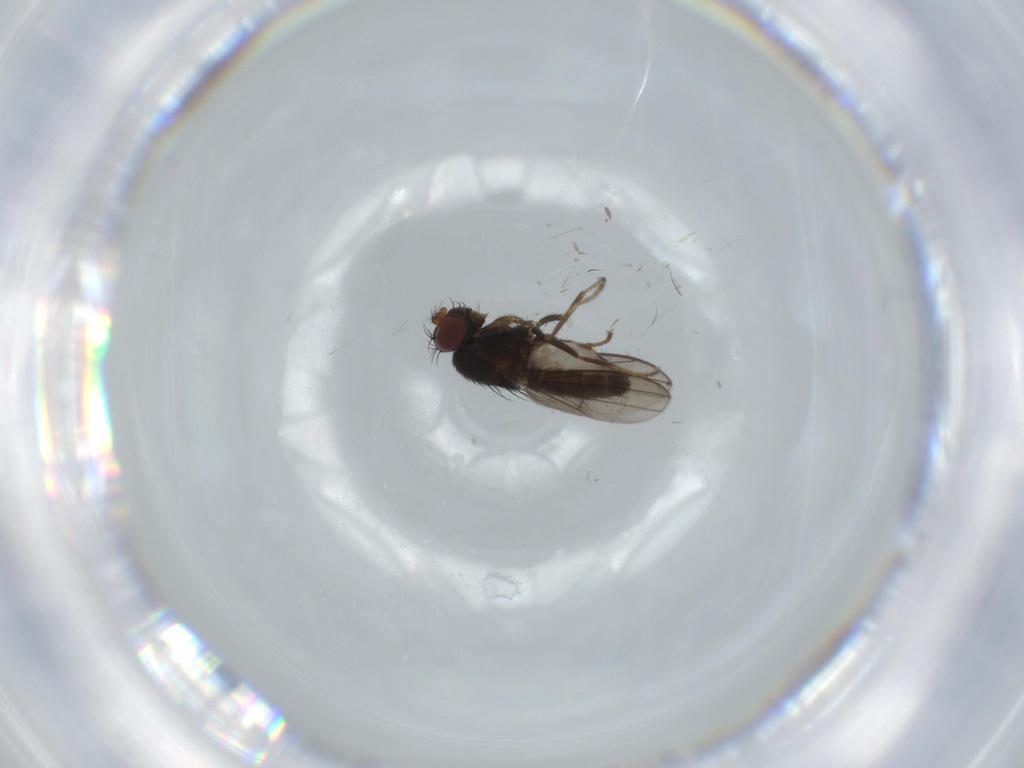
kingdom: Animalia
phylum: Arthropoda
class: Insecta
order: Diptera
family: Ephydridae
